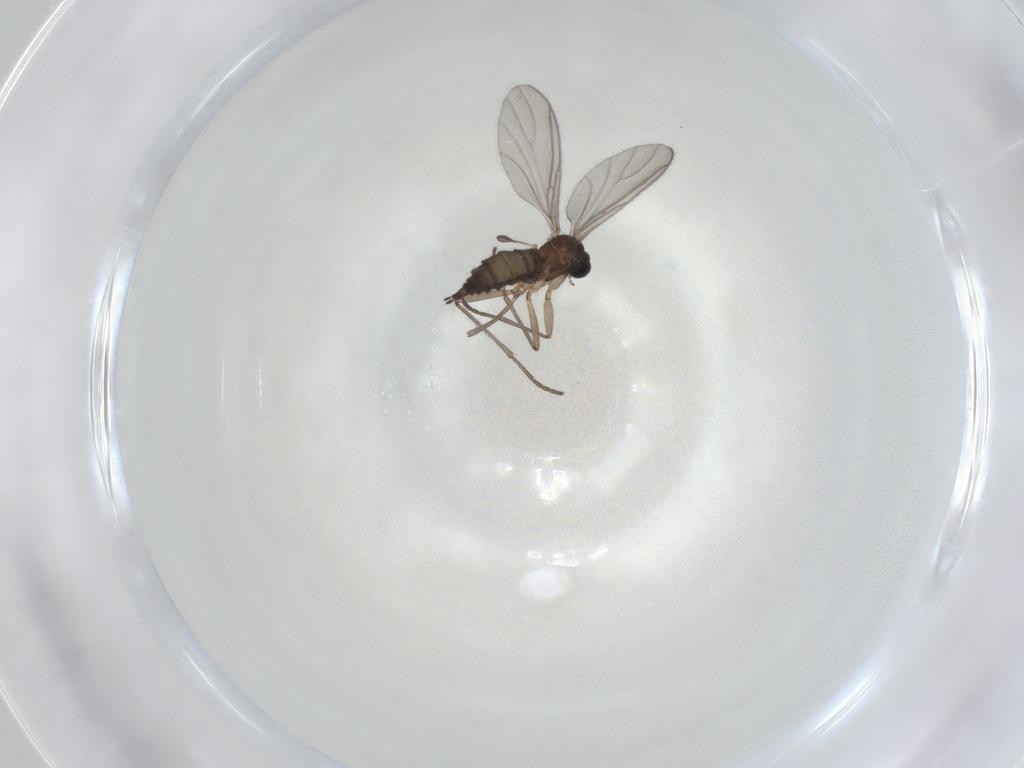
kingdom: Animalia
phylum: Arthropoda
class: Insecta
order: Diptera
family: Sciaridae
